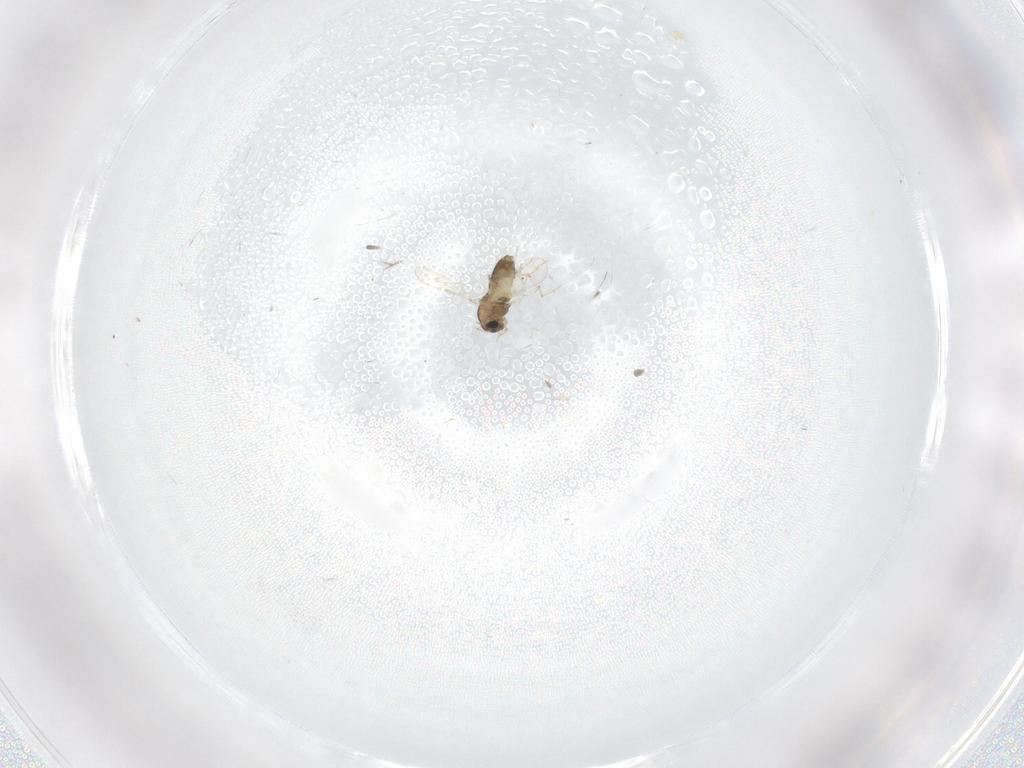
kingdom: Animalia
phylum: Arthropoda
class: Insecta
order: Diptera
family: Chironomidae
